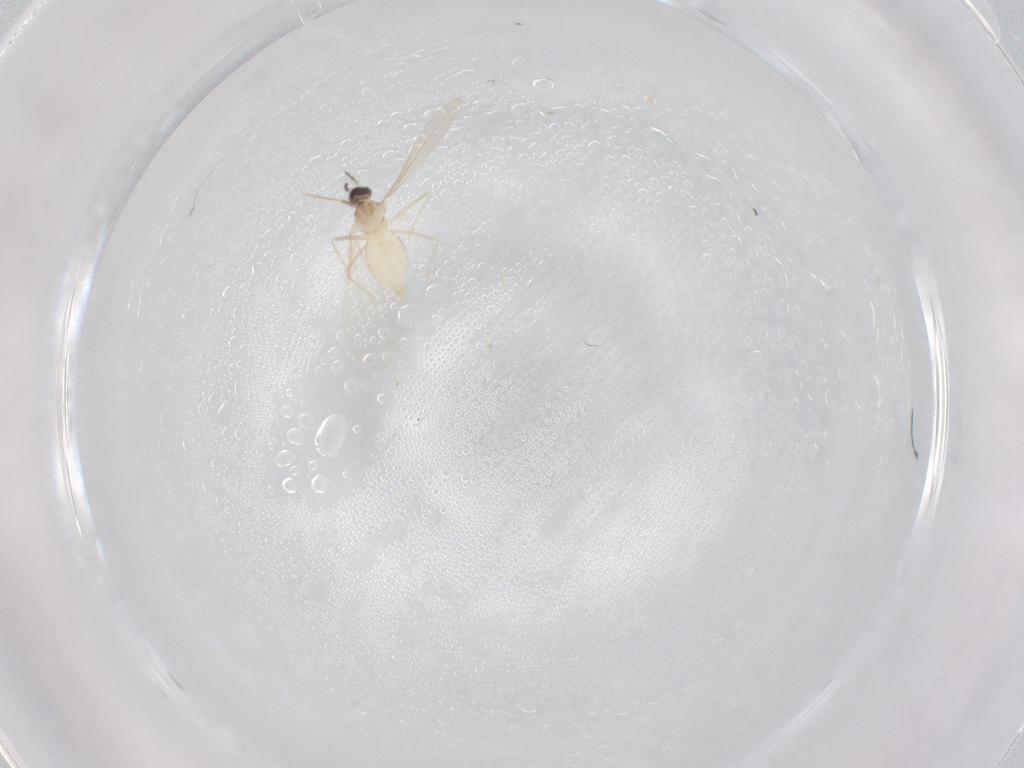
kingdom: Animalia
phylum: Arthropoda
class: Insecta
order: Diptera
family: Cecidomyiidae
